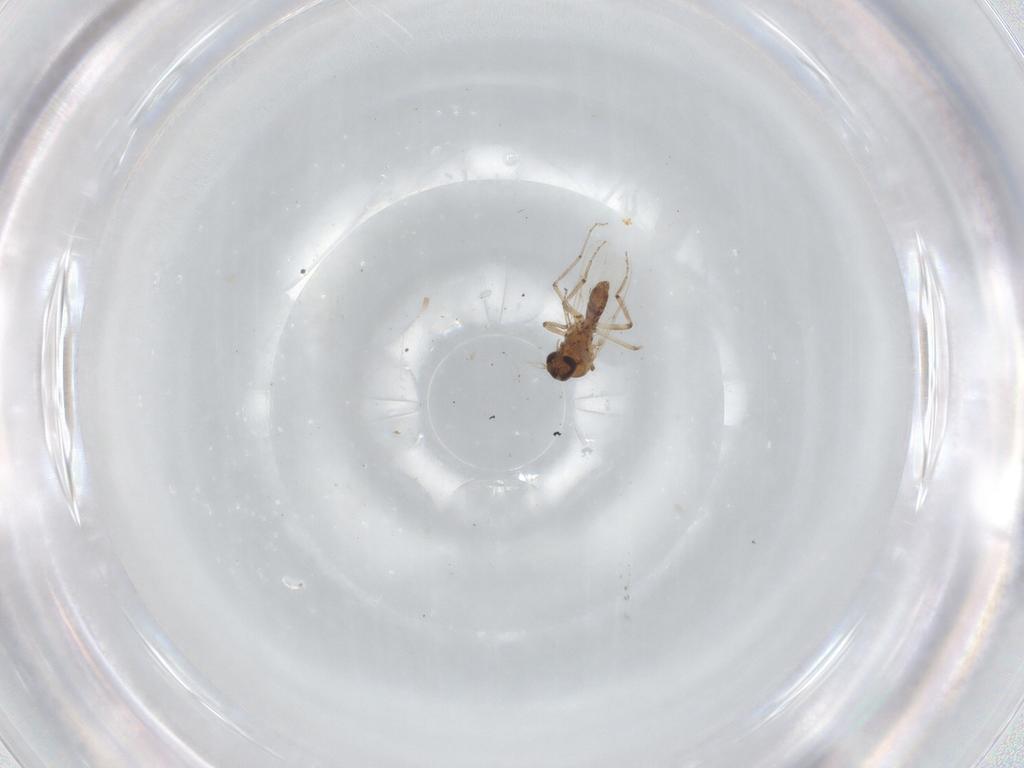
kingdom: Animalia
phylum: Arthropoda
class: Insecta
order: Diptera
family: Ceratopogonidae
